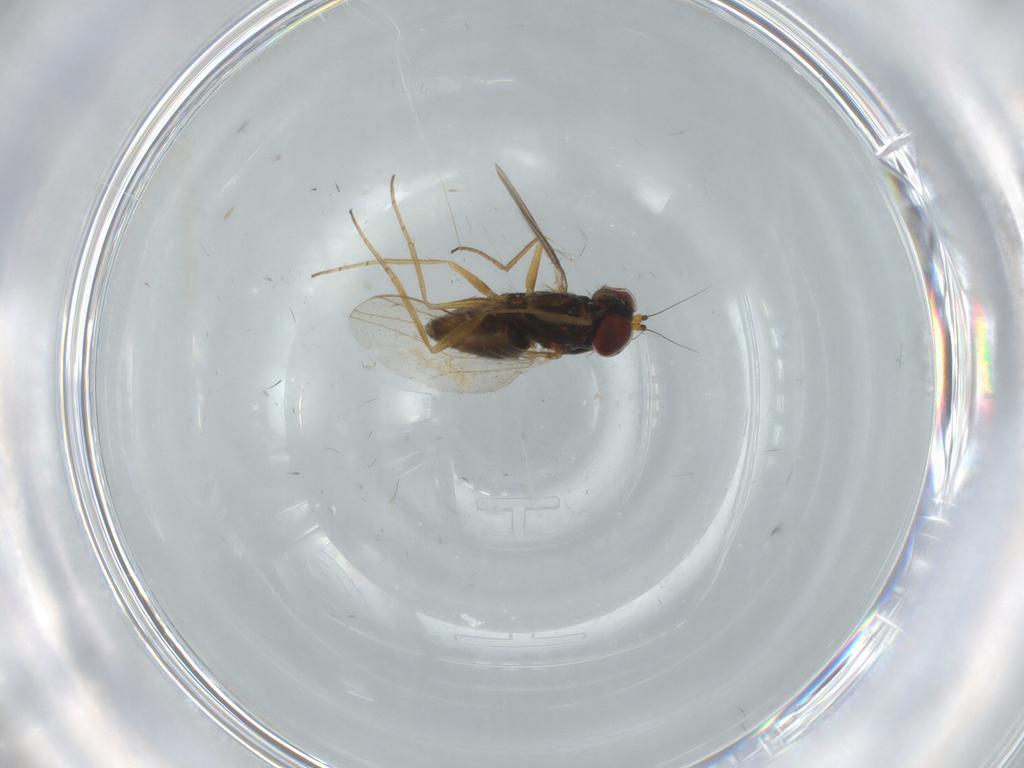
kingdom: Animalia
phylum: Arthropoda
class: Insecta
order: Diptera
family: Dolichopodidae
